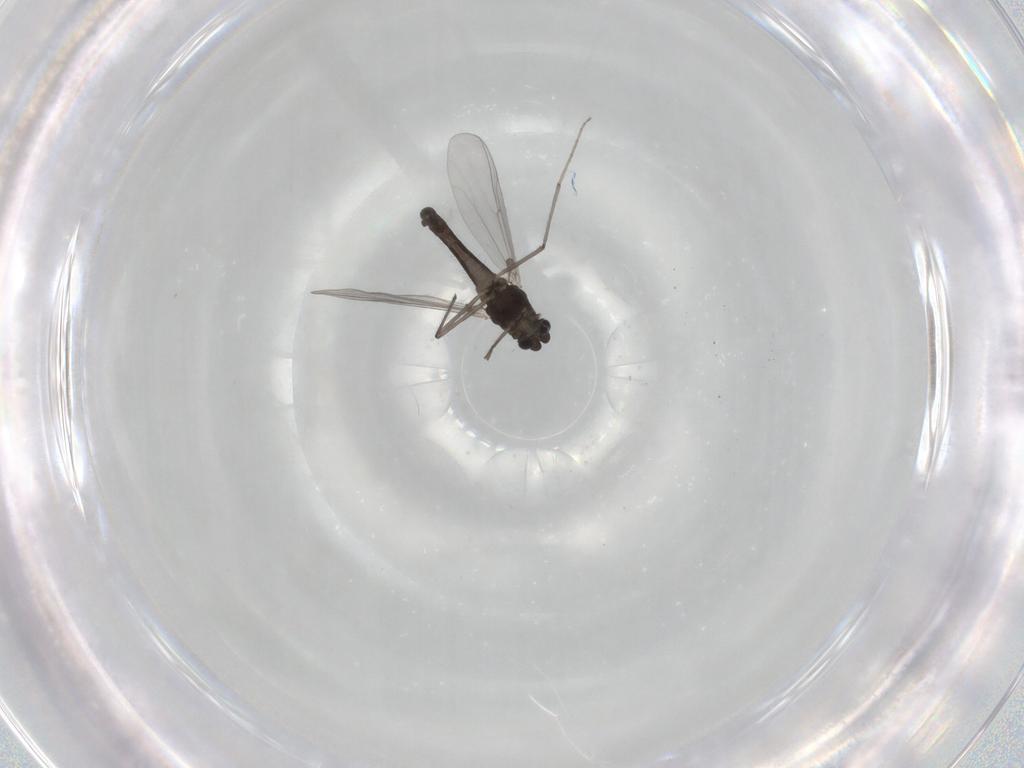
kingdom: Animalia
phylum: Arthropoda
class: Insecta
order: Diptera
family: Chironomidae
